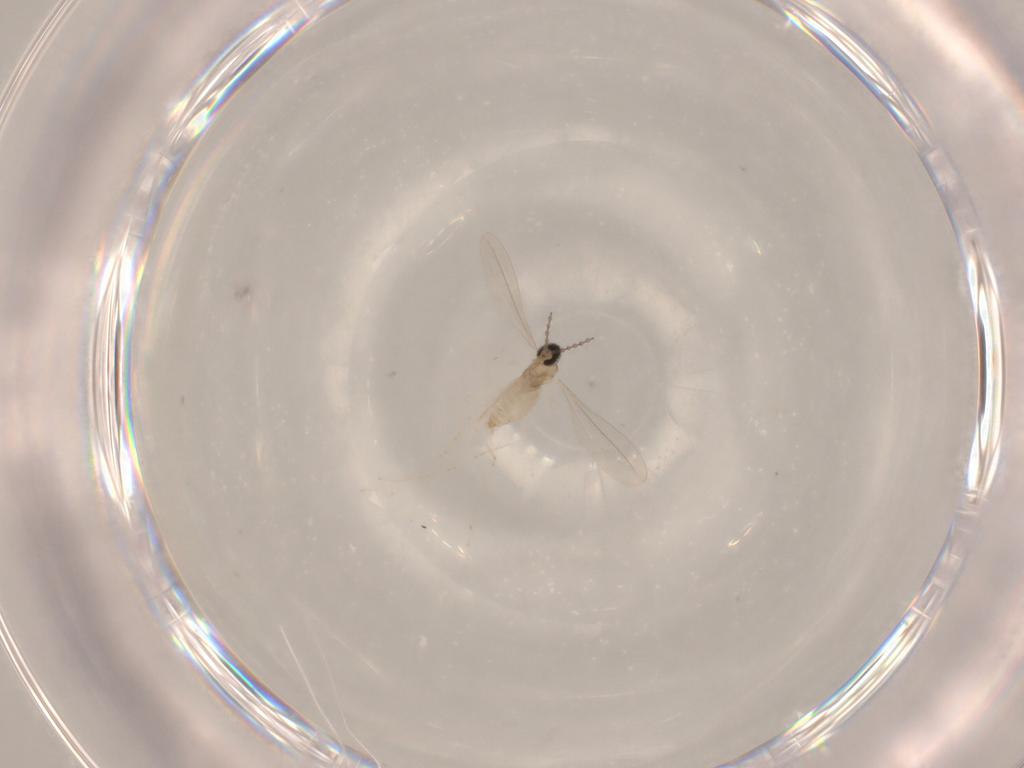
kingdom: Animalia
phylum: Arthropoda
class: Insecta
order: Diptera
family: Cecidomyiidae
